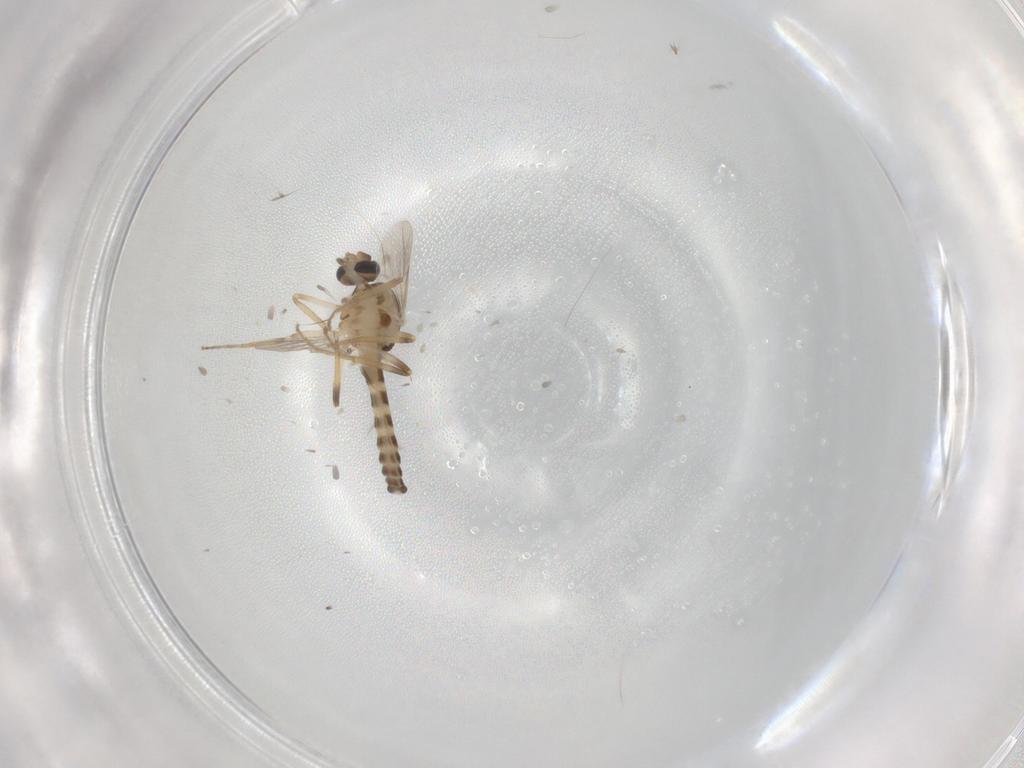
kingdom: Animalia
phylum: Arthropoda
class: Insecta
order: Diptera
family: Ceratopogonidae
